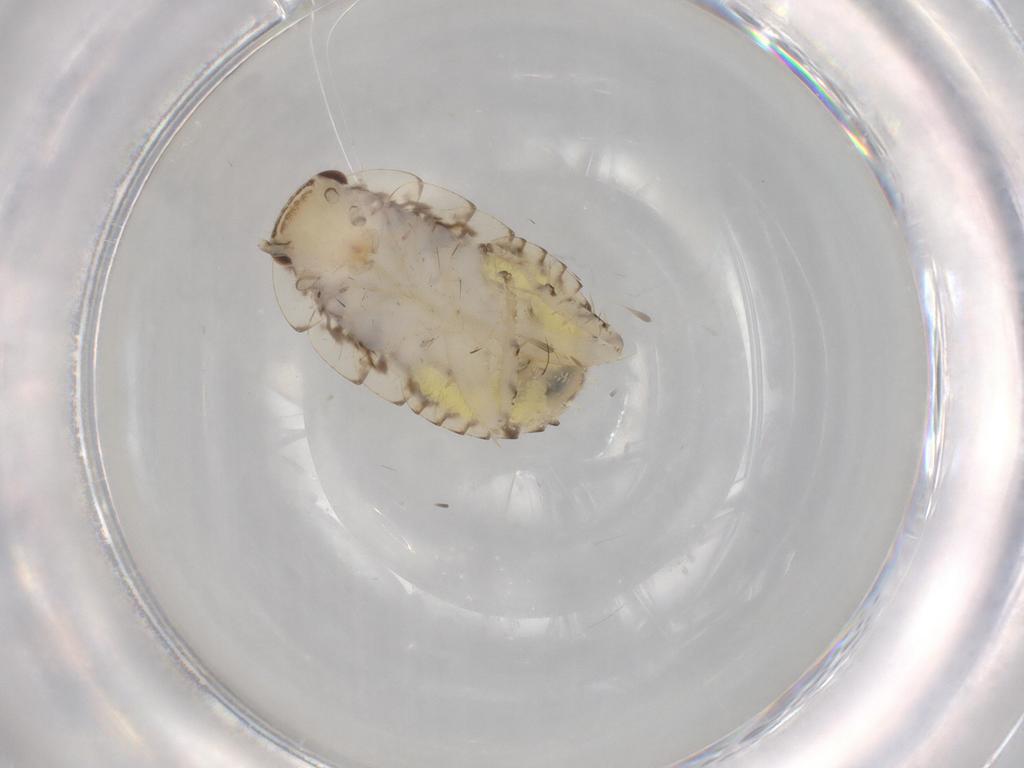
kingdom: Animalia
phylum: Arthropoda
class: Insecta
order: Blattodea
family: Ectobiidae
